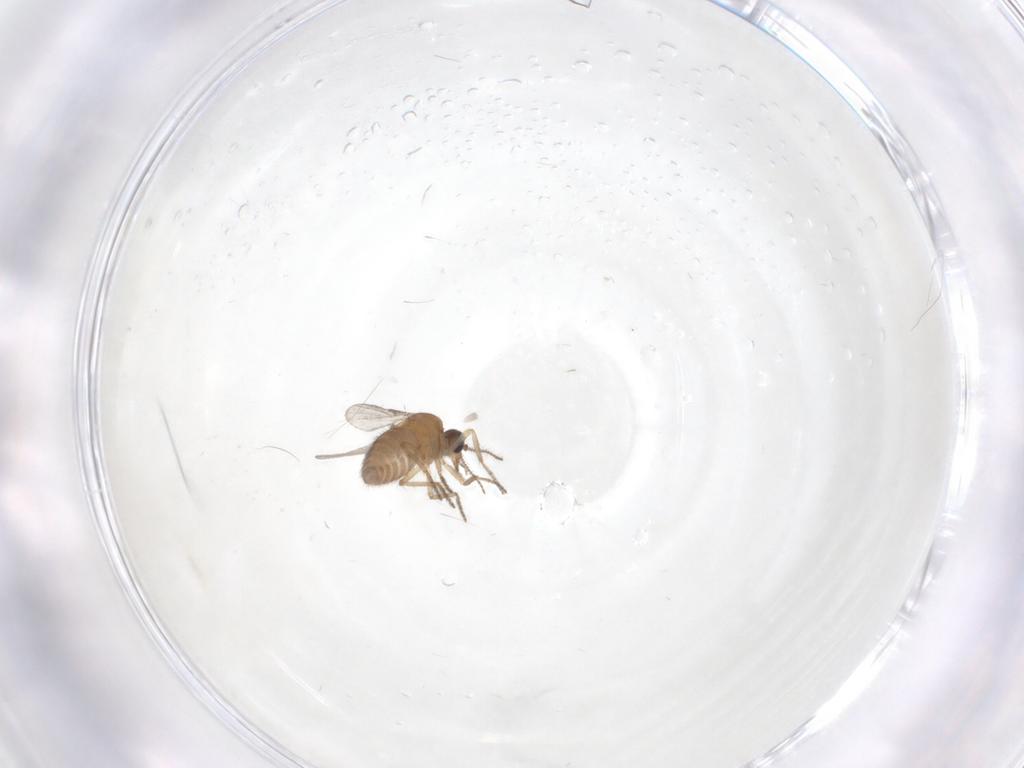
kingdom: Animalia
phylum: Arthropoda
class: Insecta
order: Diptera
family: Ceratopogonidae
